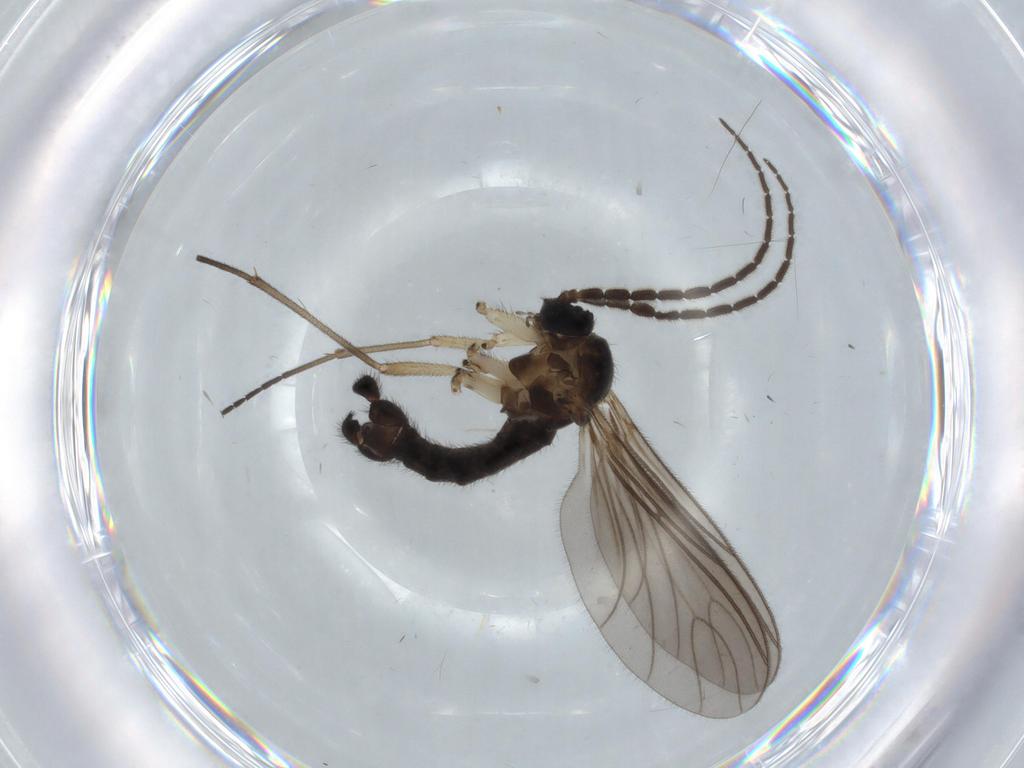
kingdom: Animalia
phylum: Arthropoda
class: Insecta
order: Diptera
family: Sciaridae
